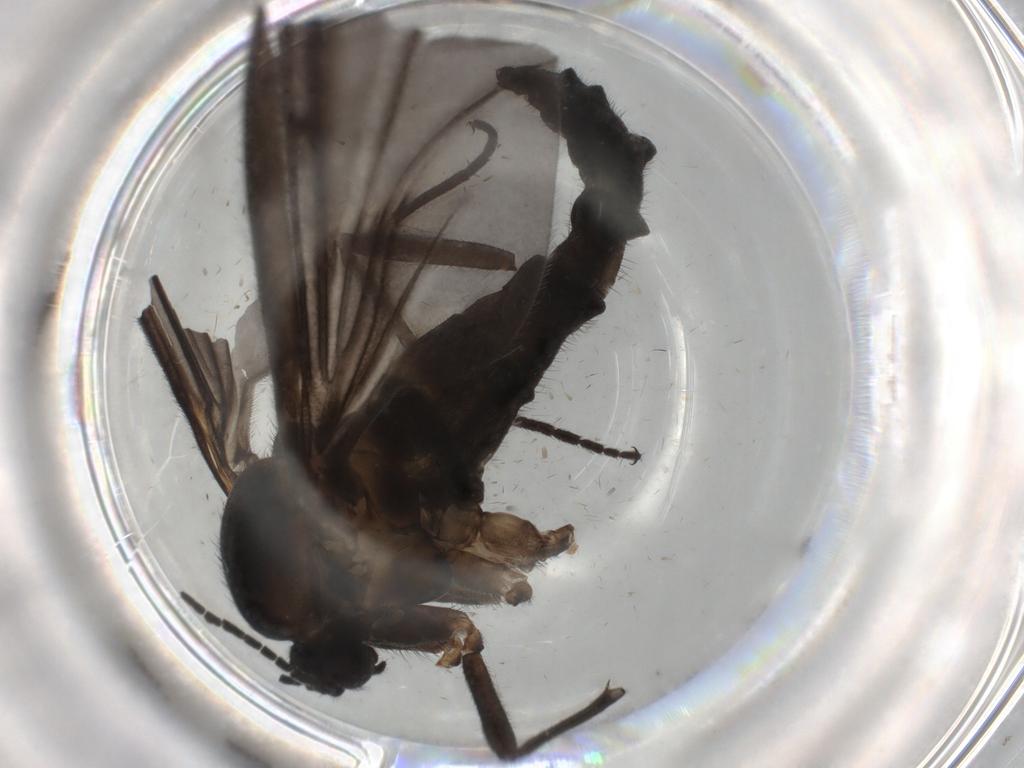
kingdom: Animalia
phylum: Arthropoda
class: Insecta
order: Diptera
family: Sciaridae
